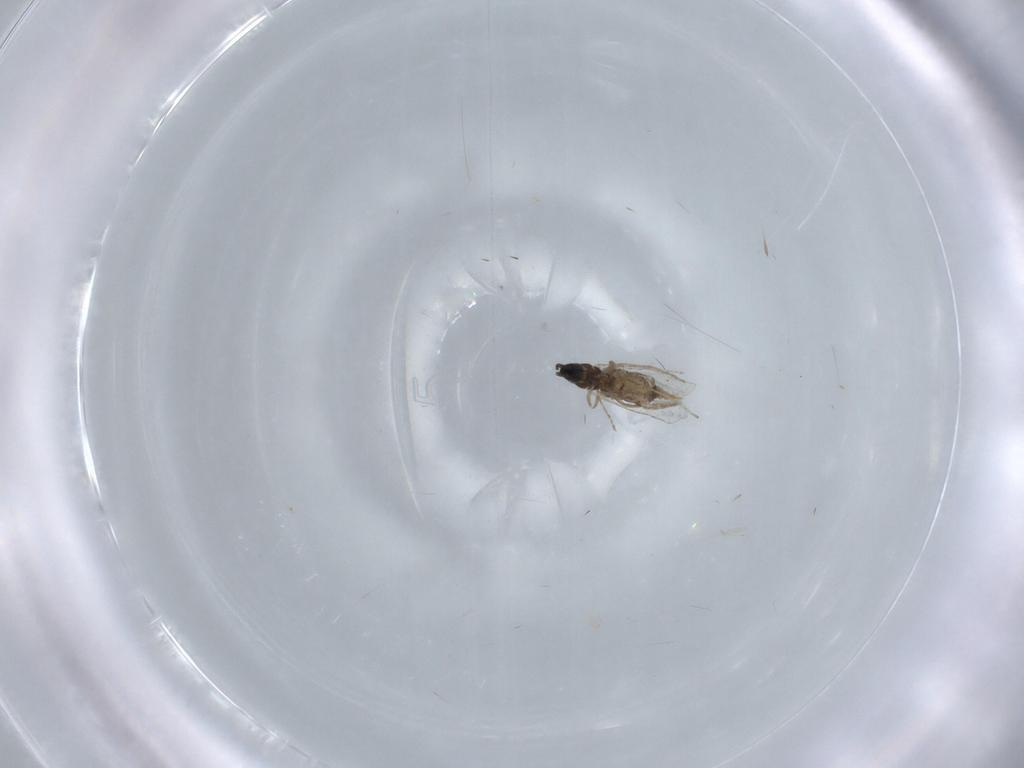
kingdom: Animalia
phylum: Arthropoda
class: Insecta
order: Diptera
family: Cecidomyiidae
